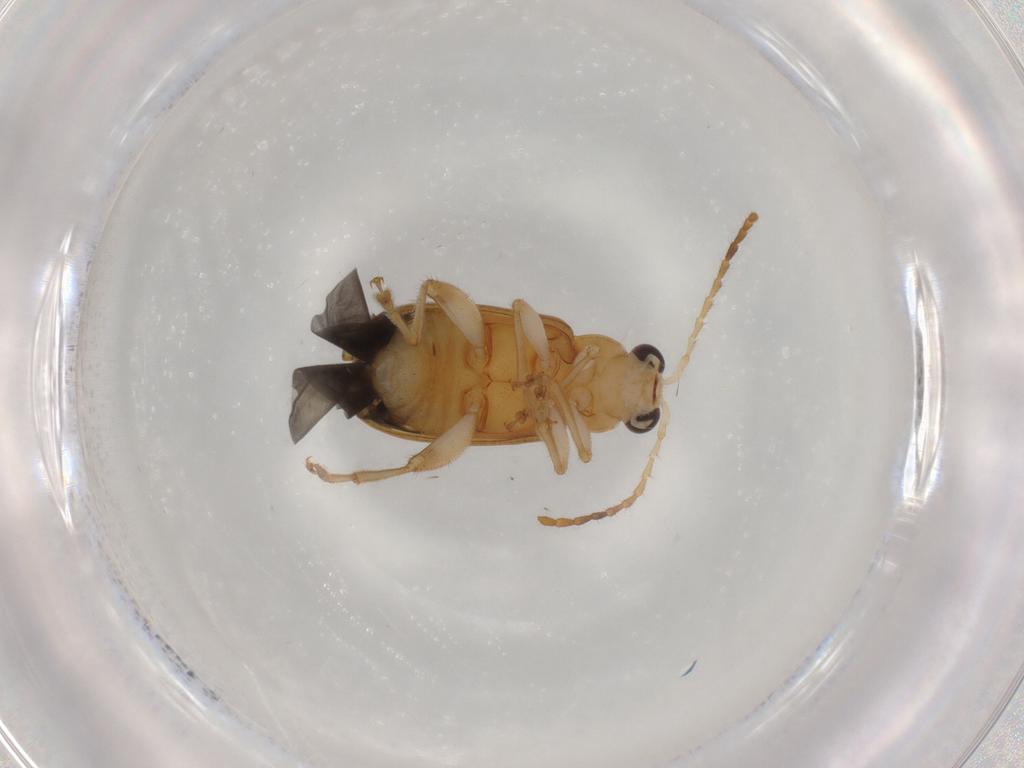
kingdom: Animalia
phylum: Arthropoda
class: Insecta
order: Coleoptera
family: Chrysomelidae
